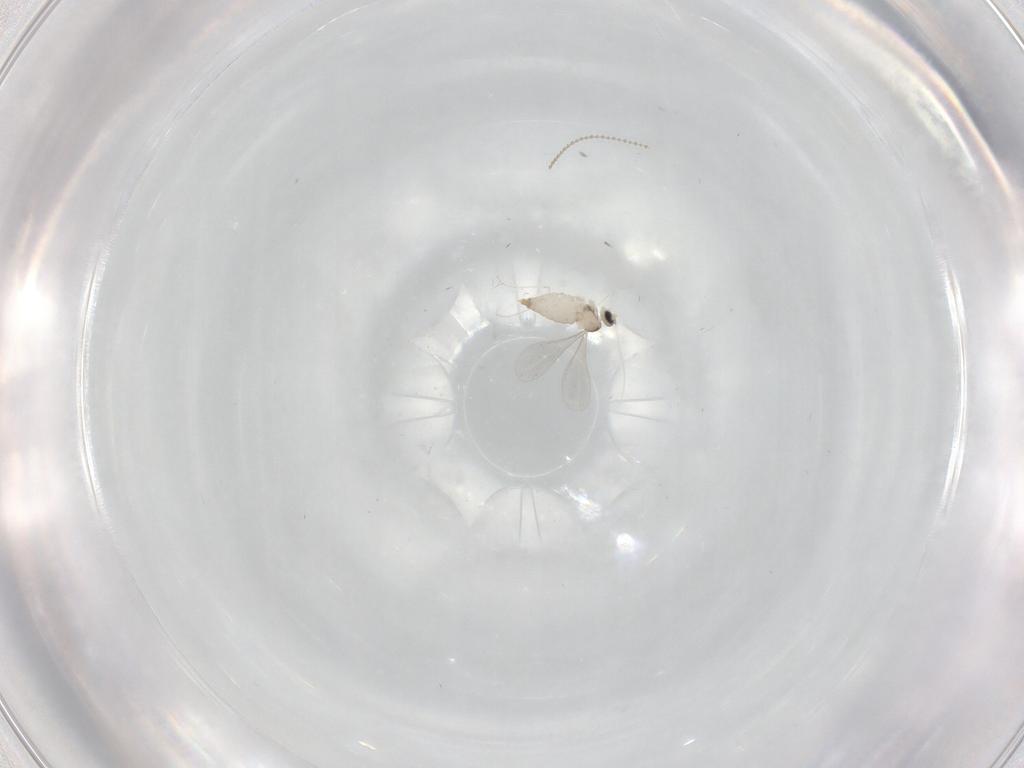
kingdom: Animalia
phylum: Arthropoda
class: Insecta
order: Diptera
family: Cecidomyiidae
